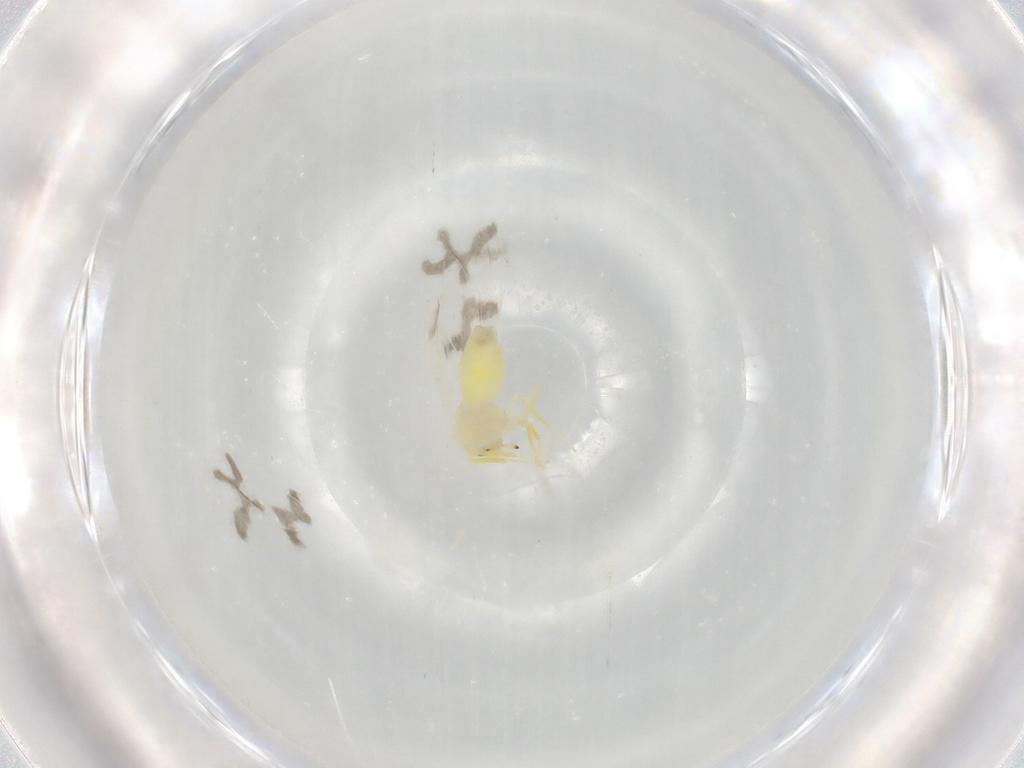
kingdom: Animalia
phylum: Arthropoda
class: Insecta
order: Hemiptera
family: Aleyrodidae
